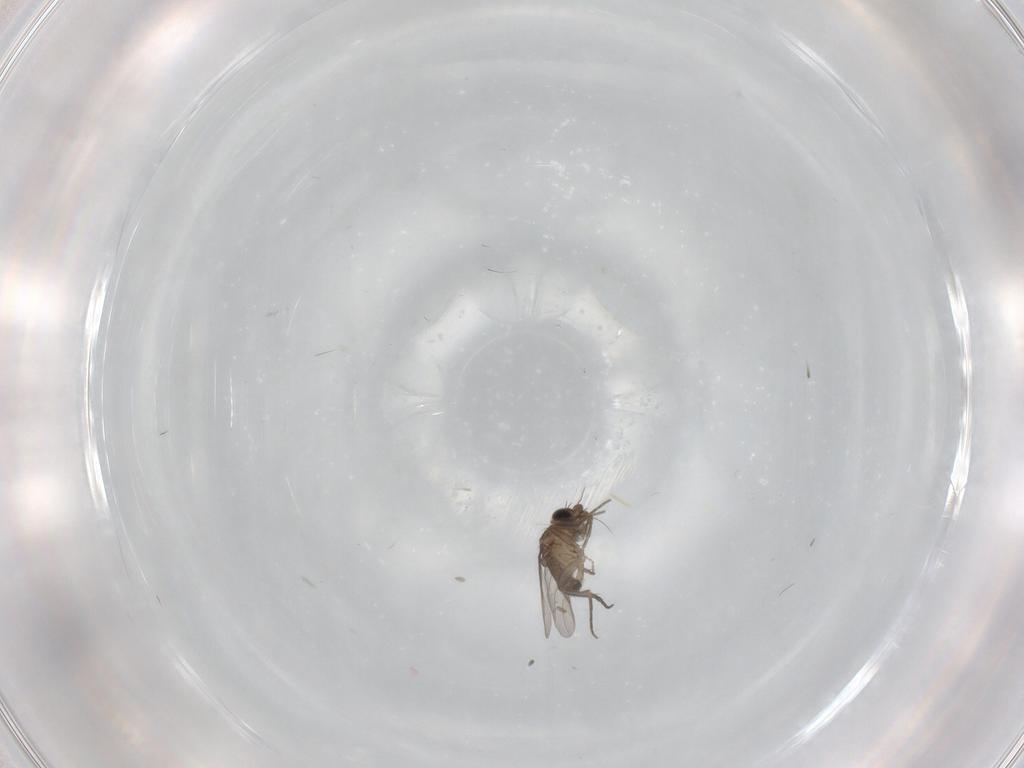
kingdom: Animalia
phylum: Arthropoda
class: Insecta
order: Diptera
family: Phoridae
